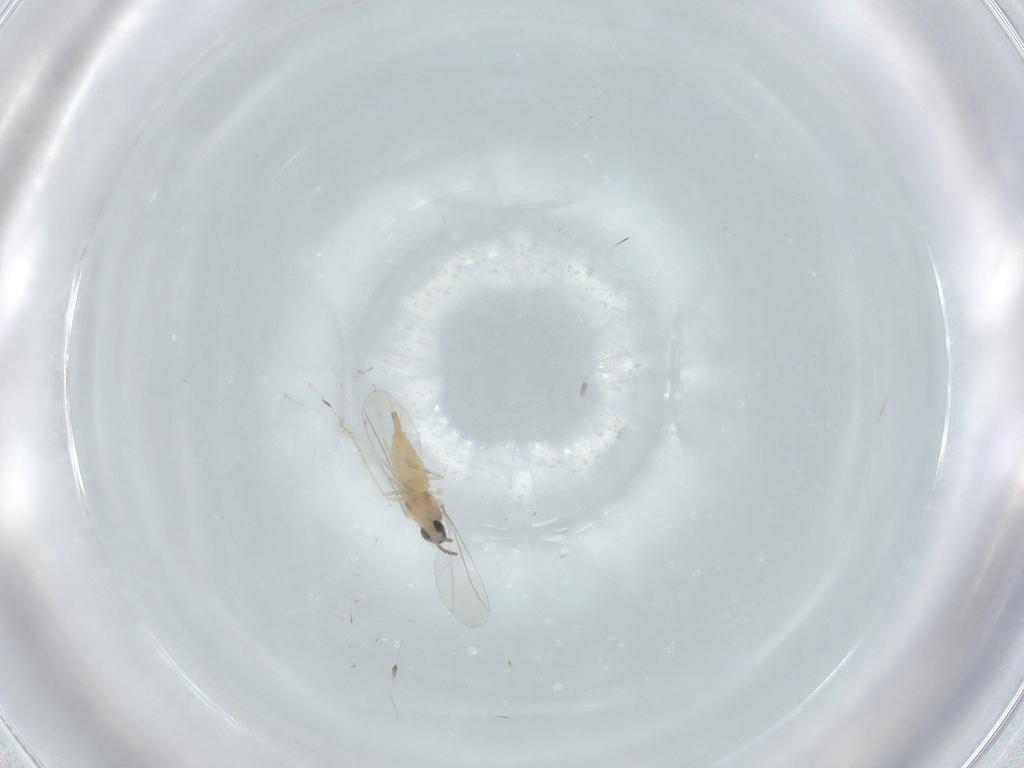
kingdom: Animalia
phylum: Arthropoda
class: Insecta
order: Diptera
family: Cecidomyiidae
